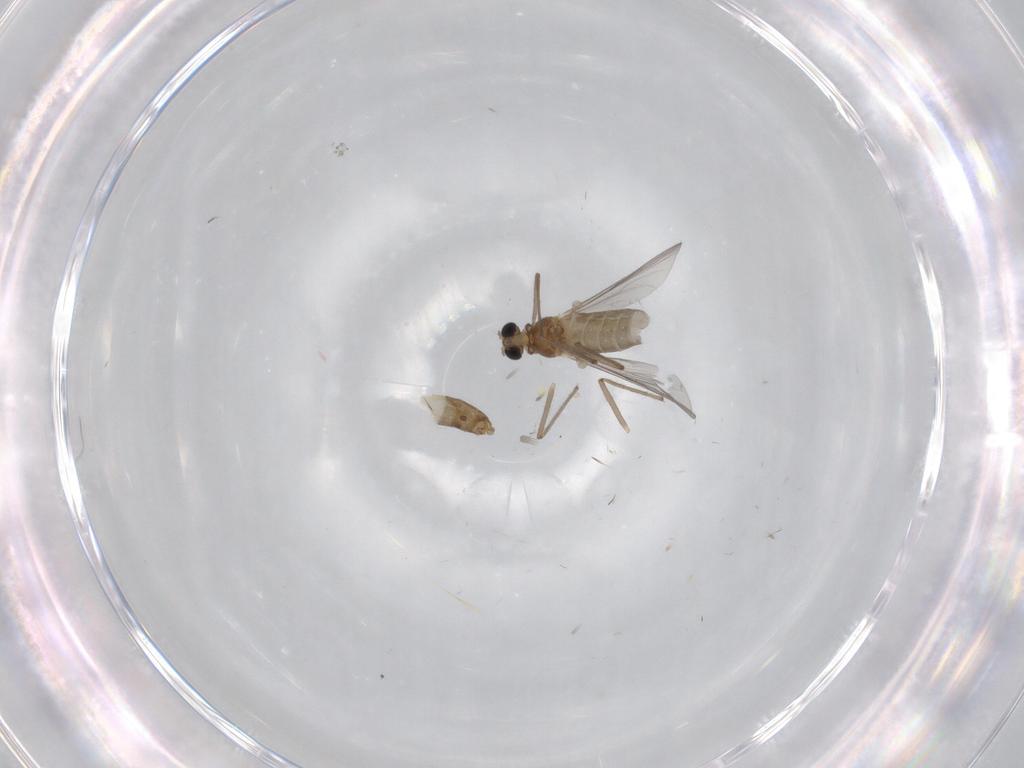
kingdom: Animalia
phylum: Arthropoda
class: Insecta
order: Diptera
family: Chironomidae
